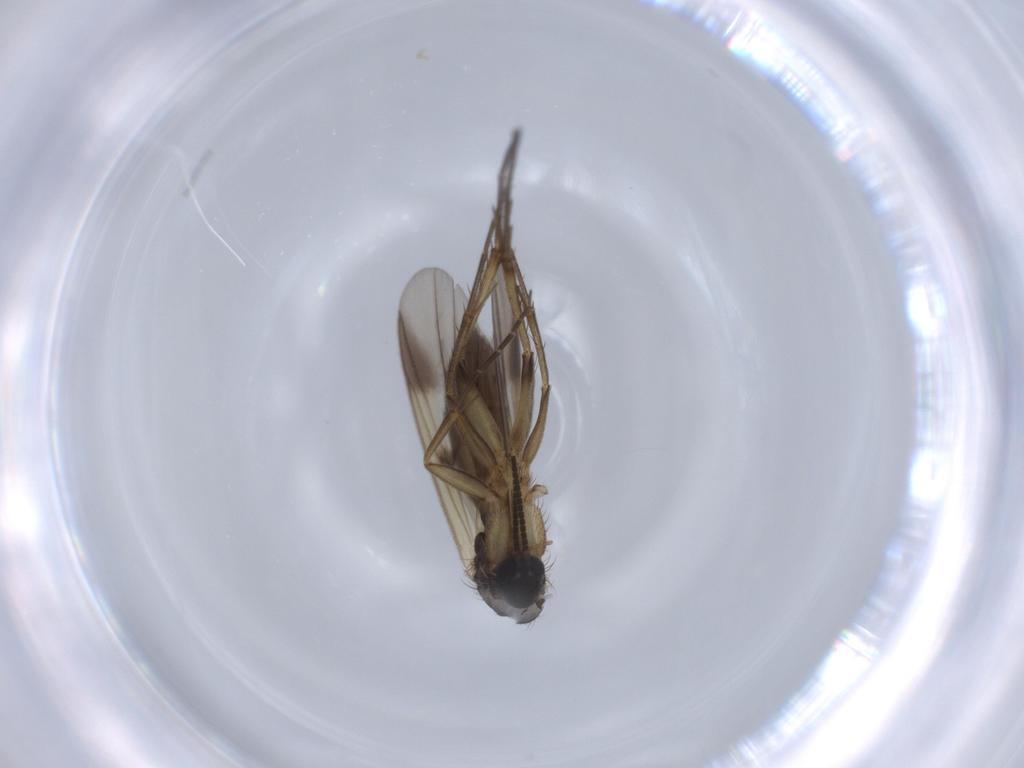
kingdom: Animalia
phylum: Arthropoda
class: Insecta
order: Diptera
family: Mycetophilidae
